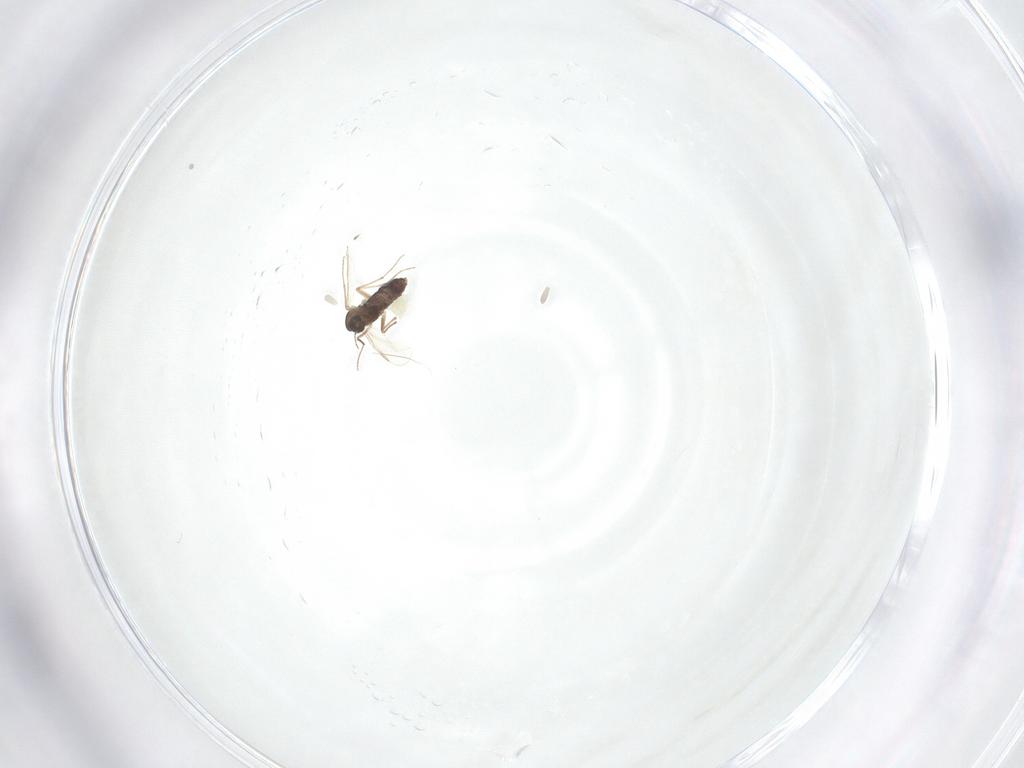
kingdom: Animalia
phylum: Arthropoda
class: Insecta
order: Diptera
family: Chironomidae
